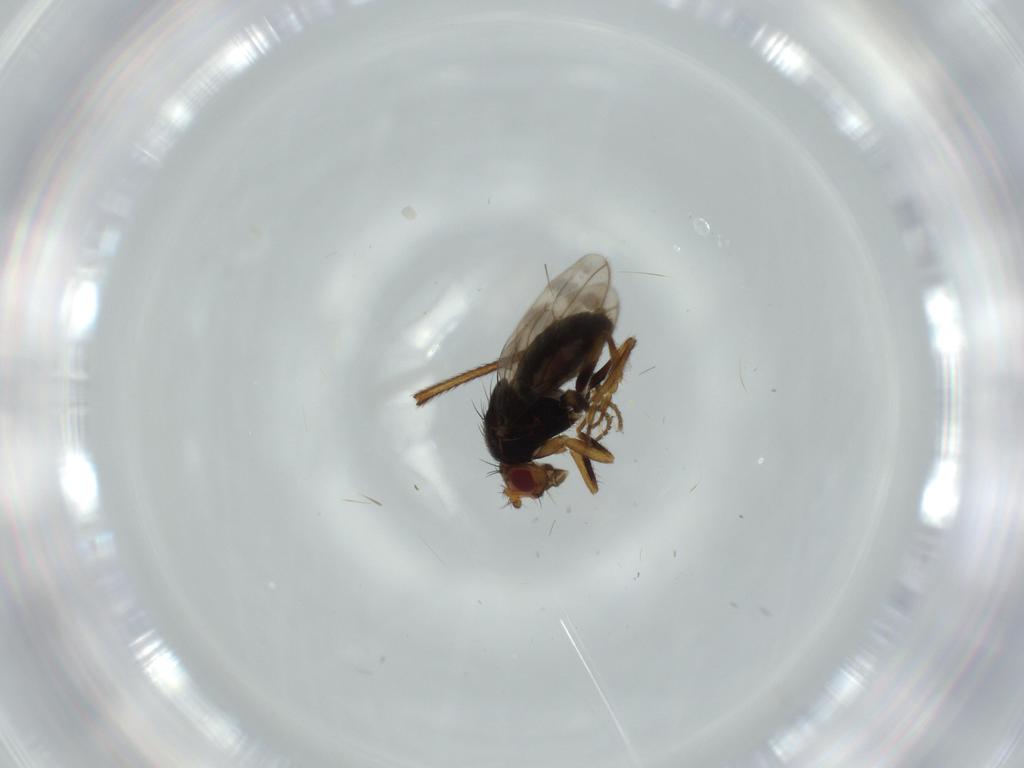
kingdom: Animalia
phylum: Arthropoda
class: Insecta
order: Diptera
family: Sphaeroceridae
